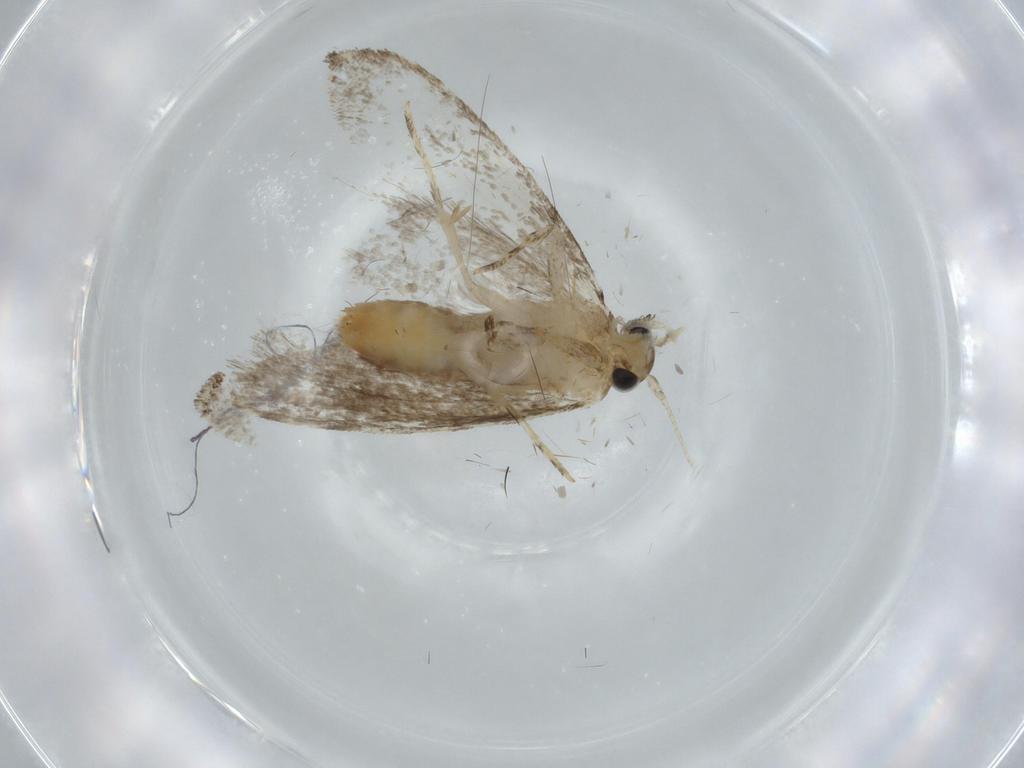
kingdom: Animalia
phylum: Arthropoda
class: Insecta
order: Lepidoptera
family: Tineidae
